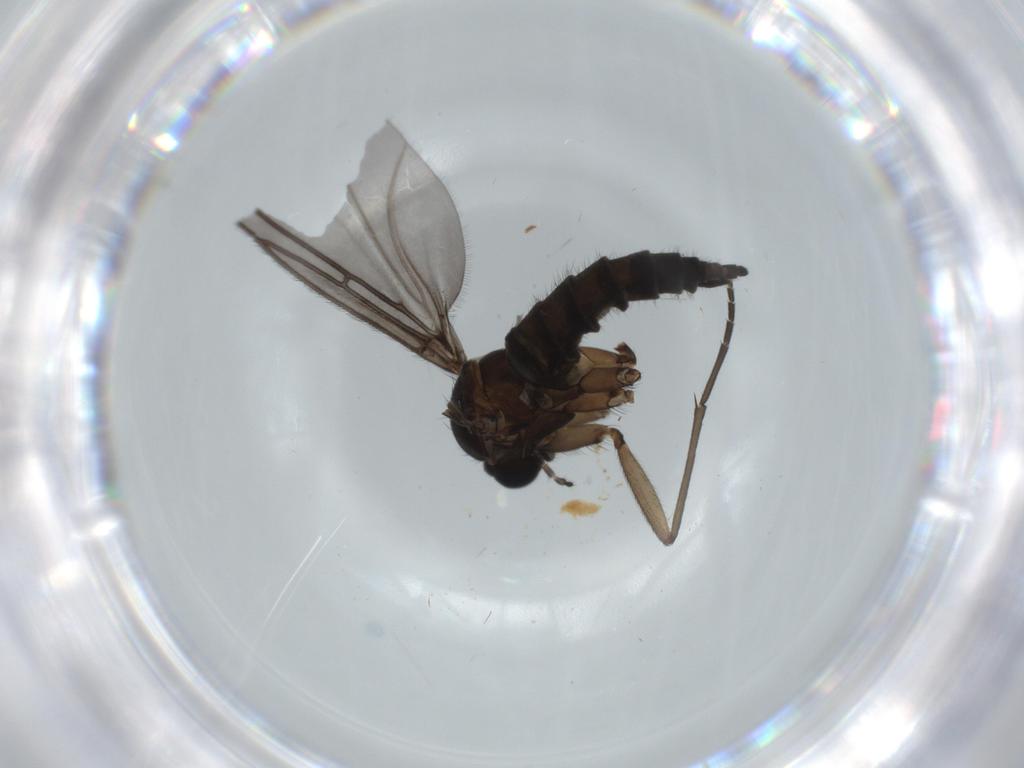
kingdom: Animalia
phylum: Arthropoda
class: Insecta
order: Diptera
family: Sciaridae
